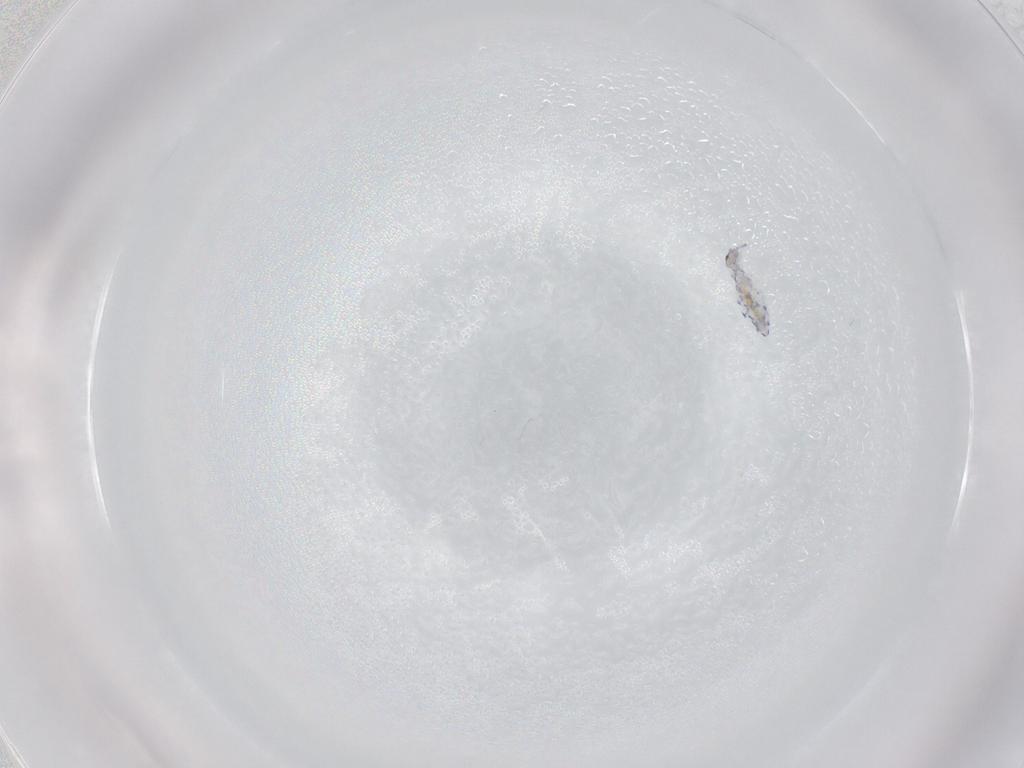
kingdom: Animalia
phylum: Arthropoda
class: Collembola
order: Entomobryomorpha
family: Entomobryidae
